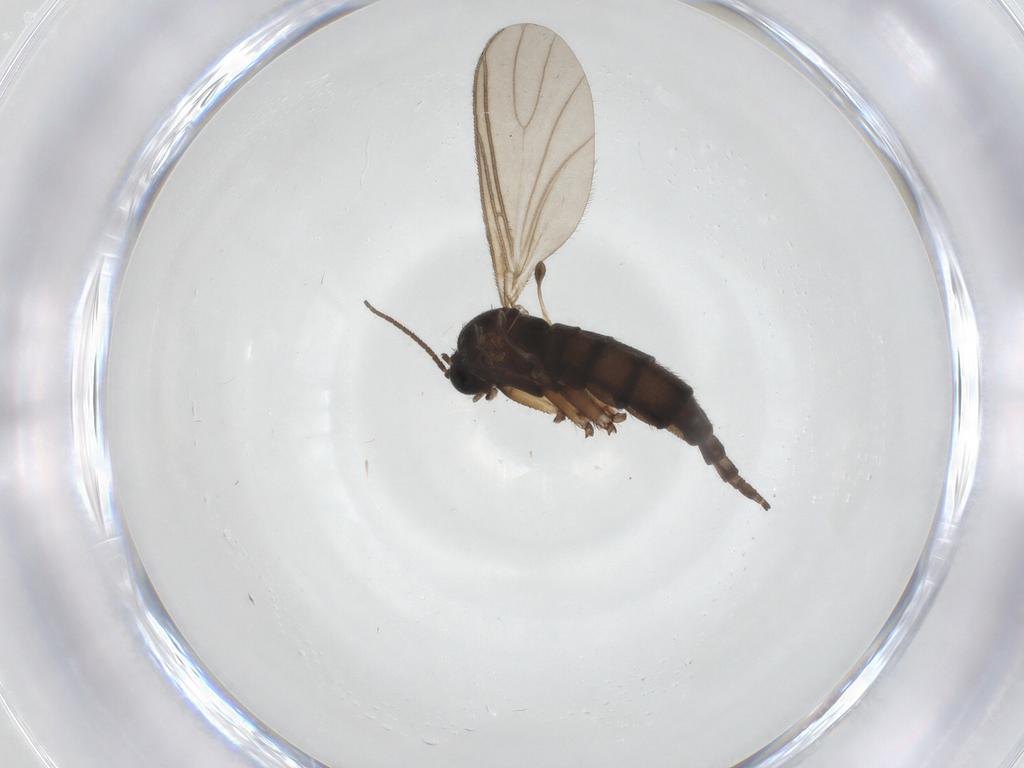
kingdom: Animalia
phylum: Arthropoda
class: Insecta
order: Diptera
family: Sciaridae
